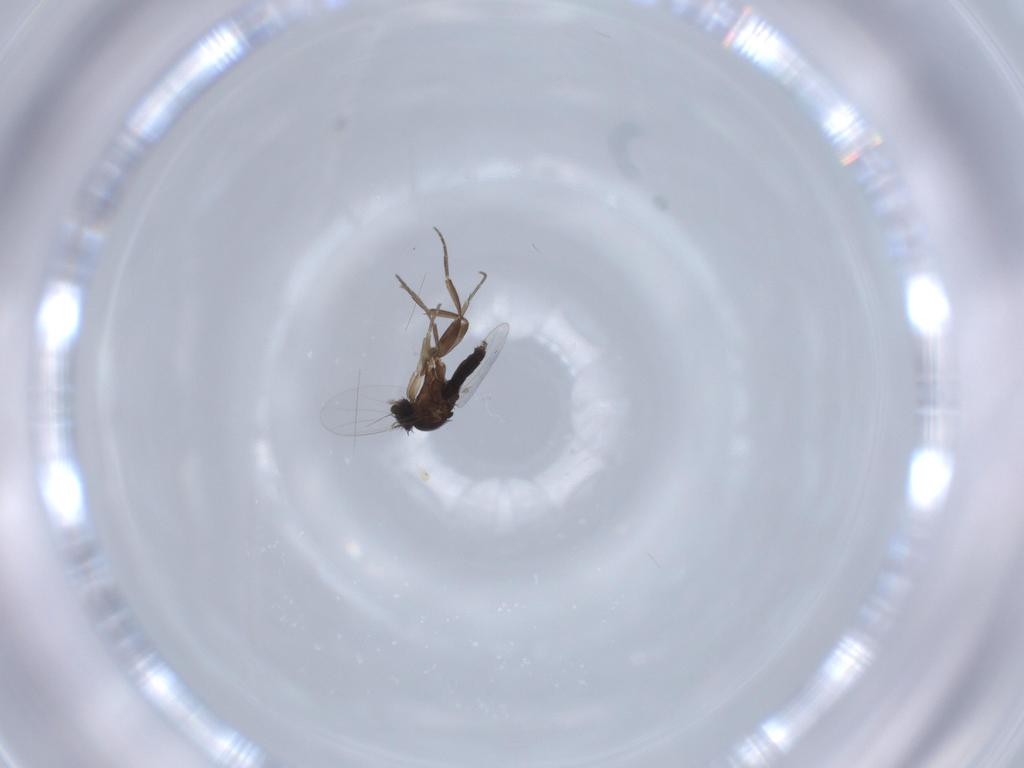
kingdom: Animalia
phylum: Arthropoda
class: Insecta
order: Diptera
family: Phoridae
